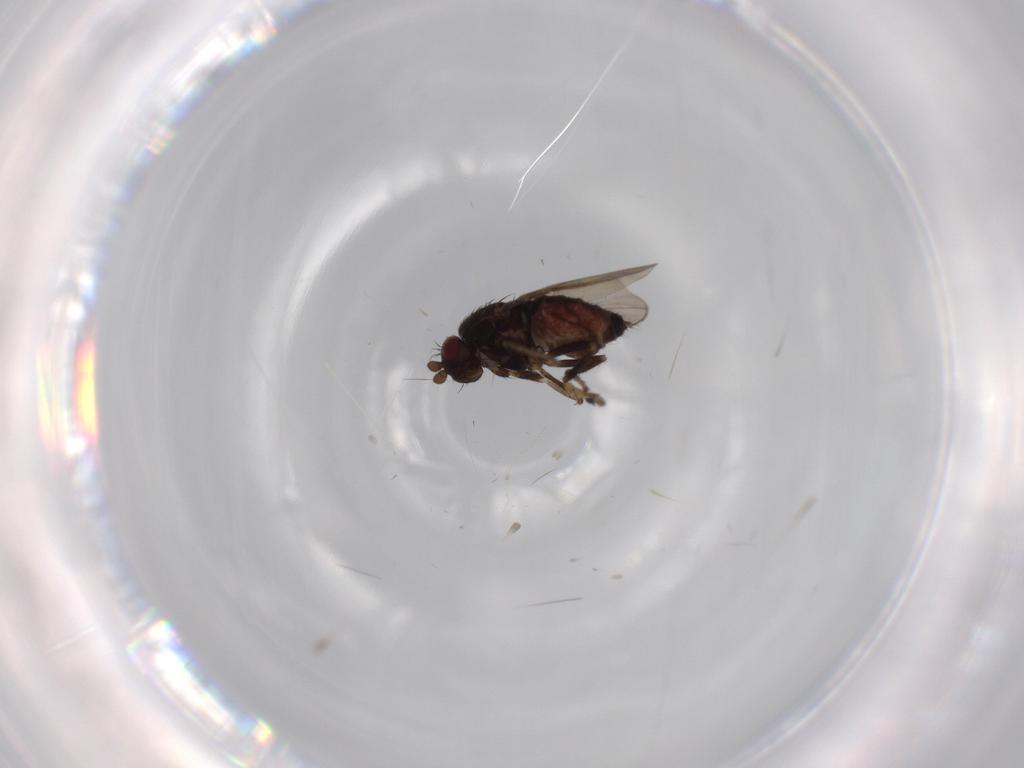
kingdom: Animalia
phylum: Arthropoda
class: Insecta
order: Diptera
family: Sphaeroceridae
